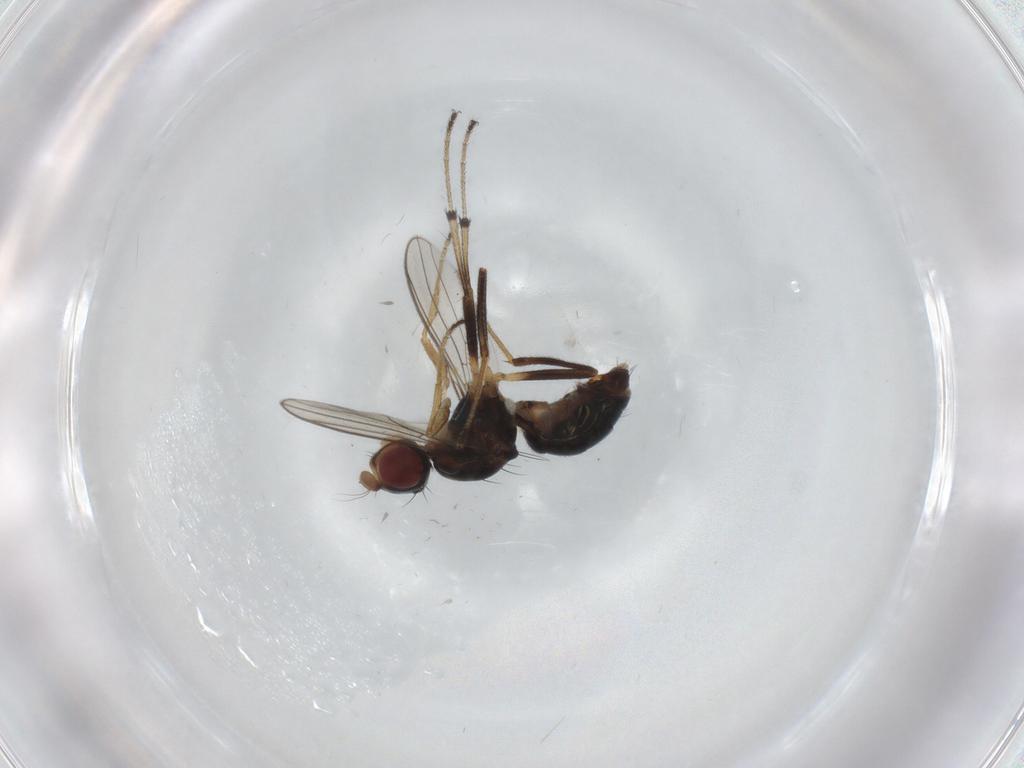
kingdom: Animalia
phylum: Arthropoda
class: Insecta
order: Diptera
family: Sepsidae
